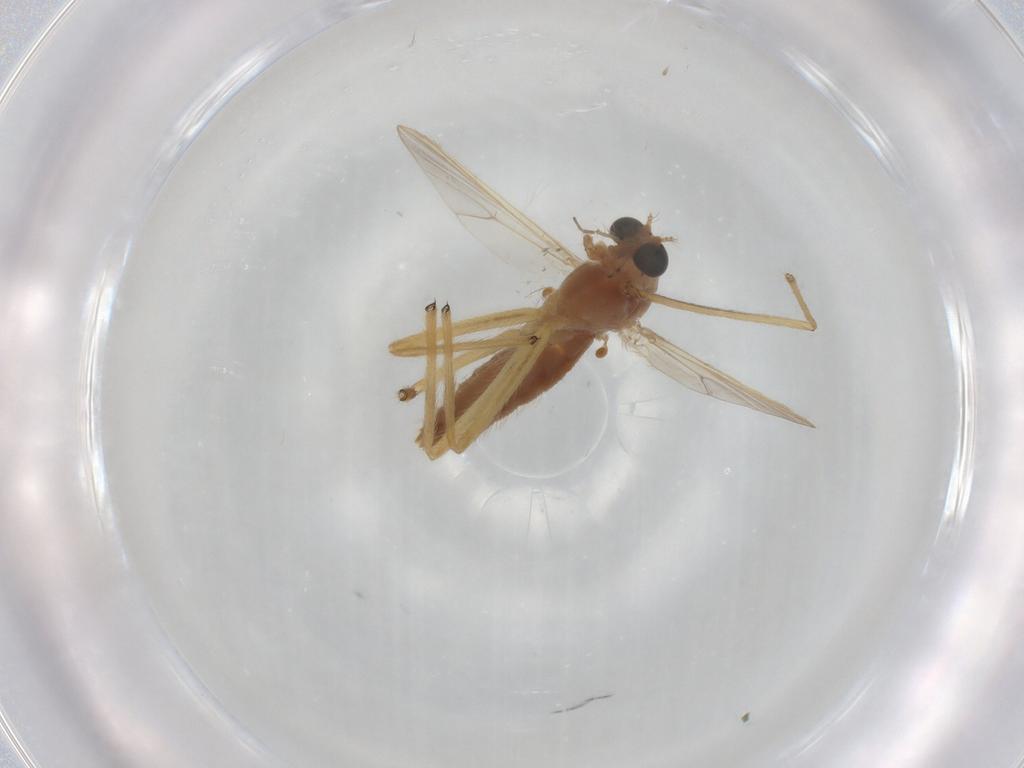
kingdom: Animalia
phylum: Arthropoda
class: Insecta
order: Diptera
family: Chironomidae
